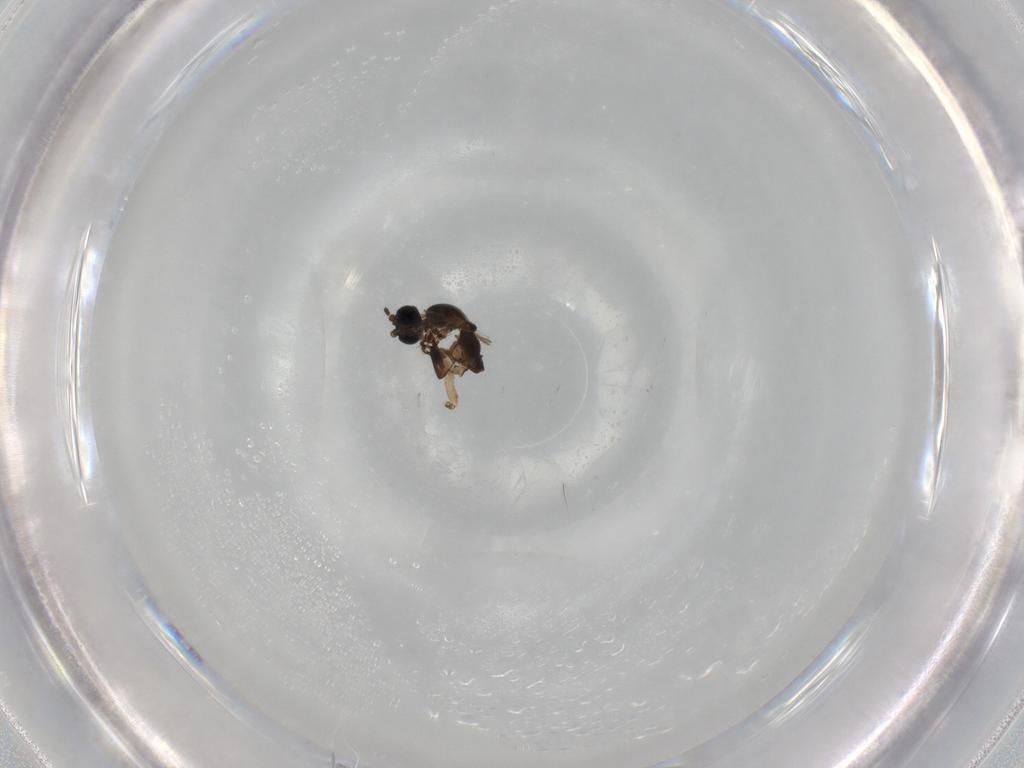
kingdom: Animalia
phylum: Arthropoda
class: Insecta
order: Diptera
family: Sciaridae
